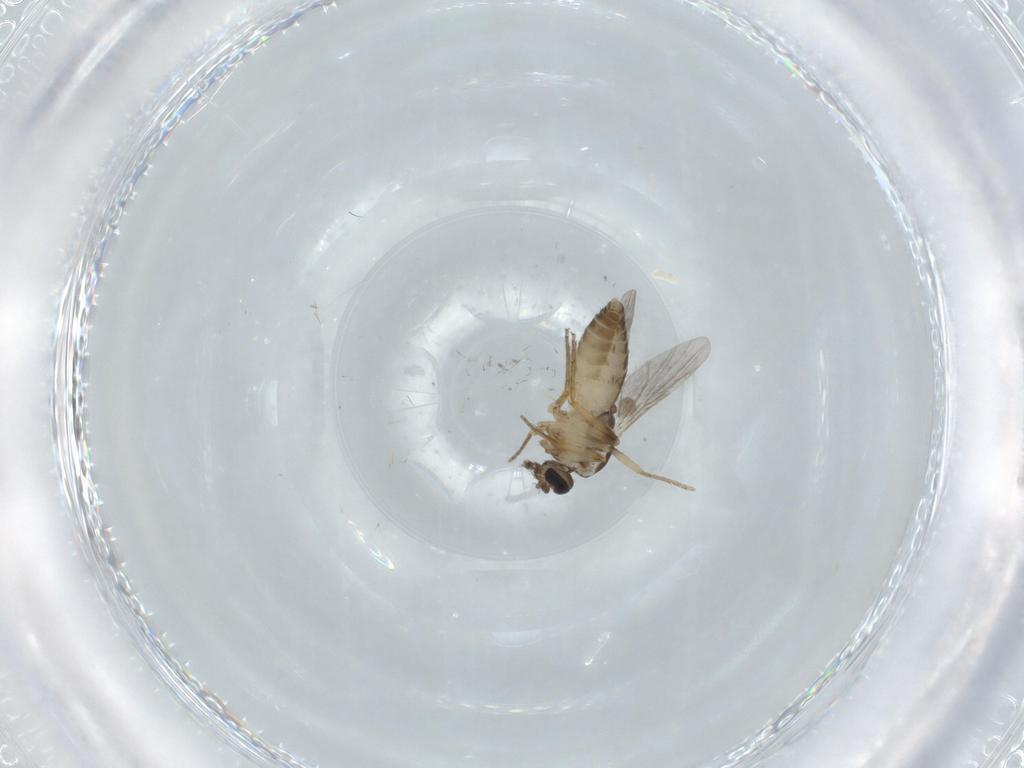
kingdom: Animalia
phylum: Arthropoda
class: Insecta
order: Diptera
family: Ceratopogonidae
